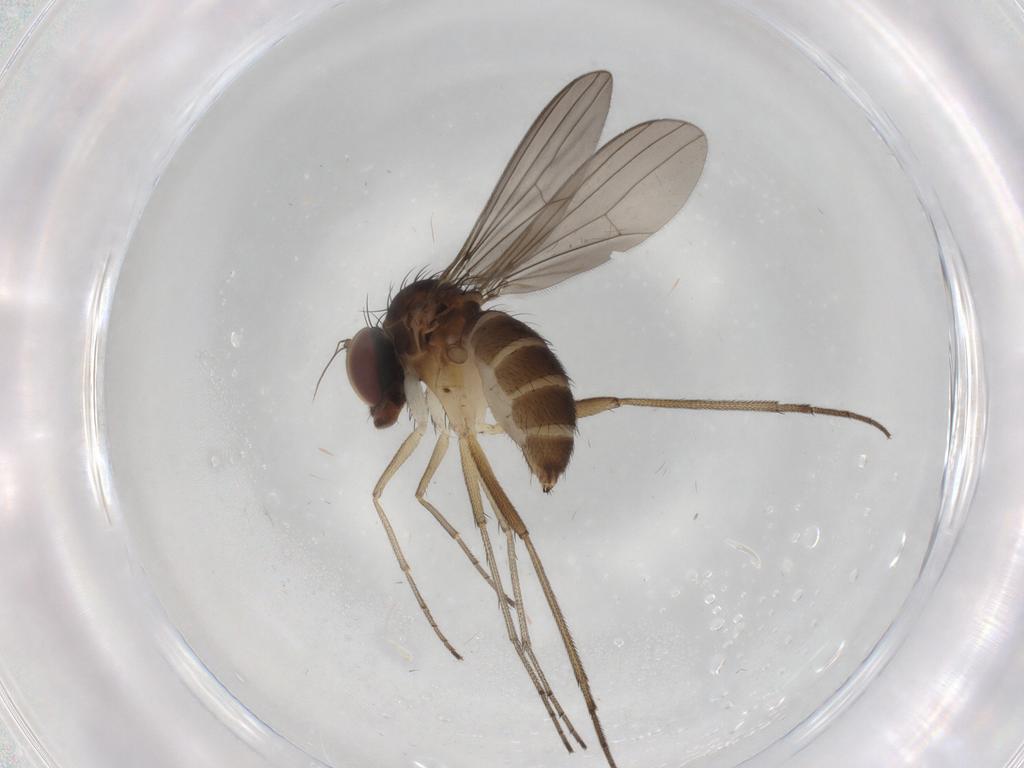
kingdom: Animalia
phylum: Arthropoda
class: Insecta
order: Diptera
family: Dolichopodidae
